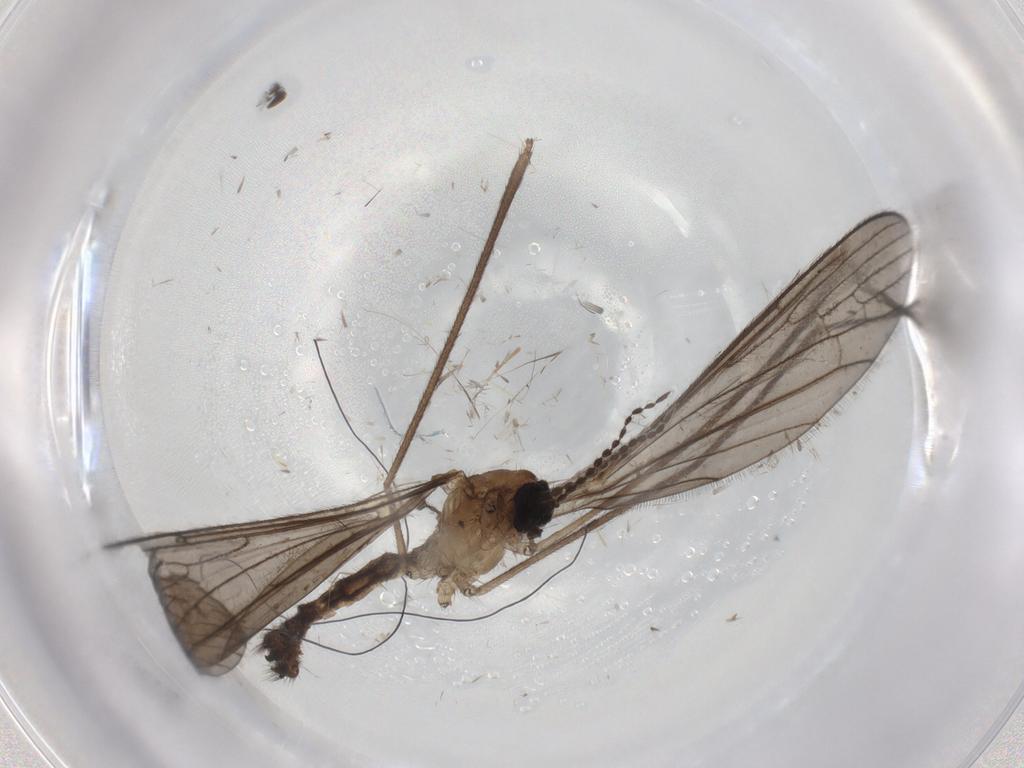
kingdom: Animalia
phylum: Arthropoda
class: Insecta
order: Diptera
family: Limoniidae
